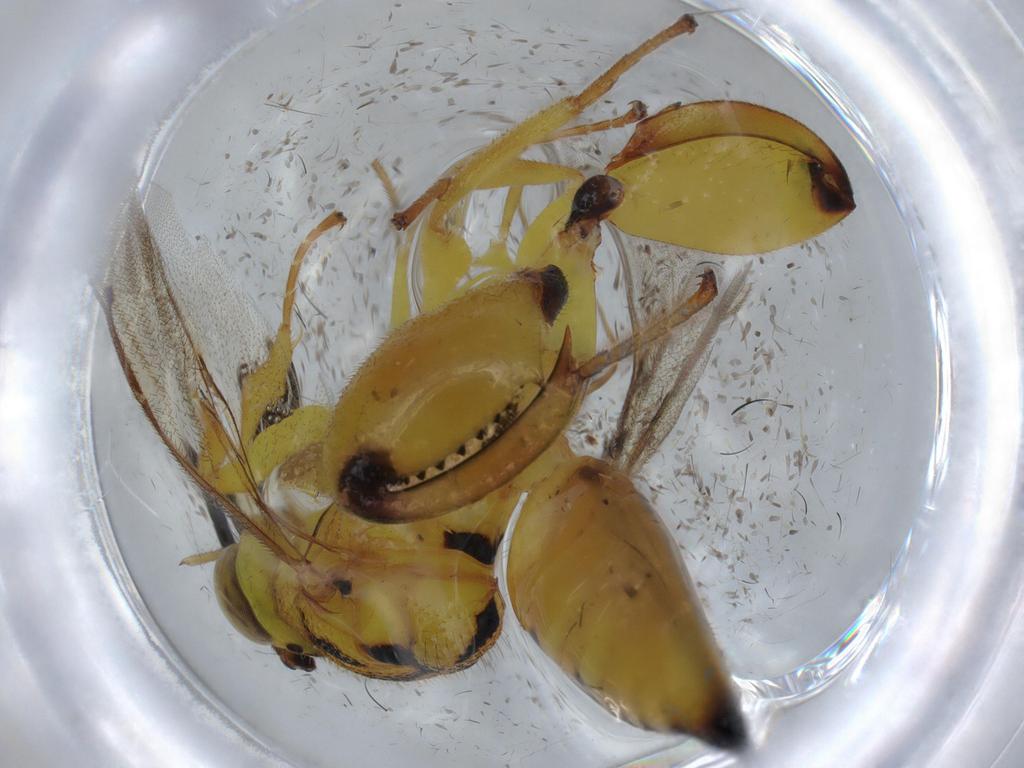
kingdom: Animalia
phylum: Arthropoda
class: Insecta
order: Hymenoptera
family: Chalcididae
